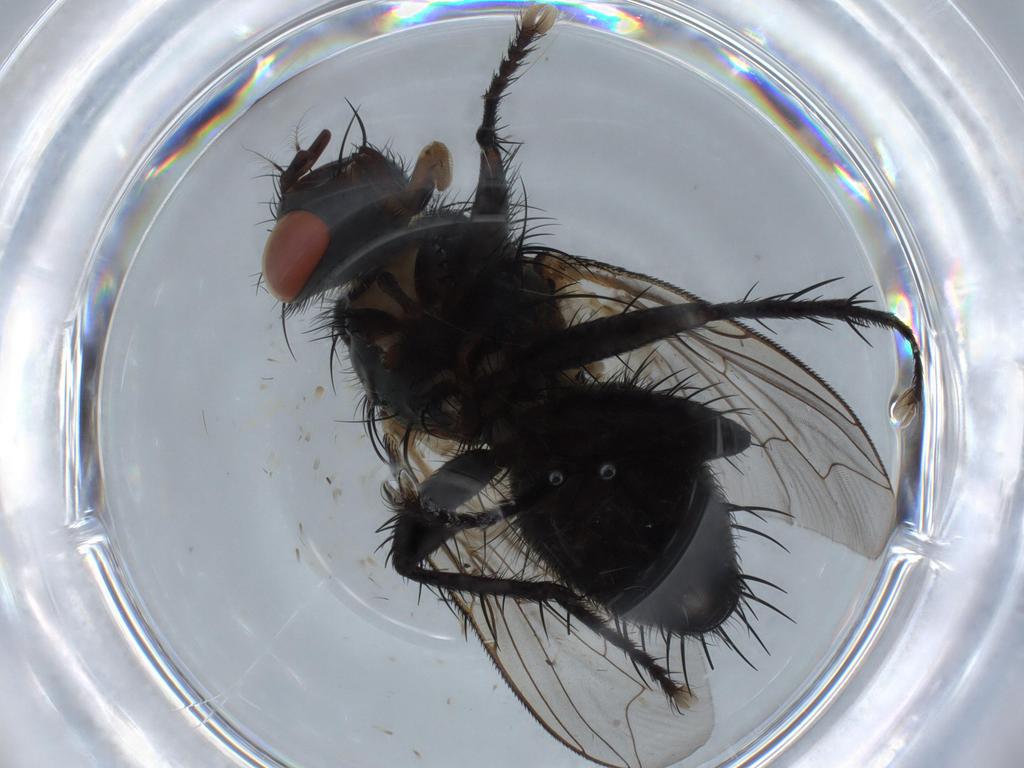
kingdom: Animalia
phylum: Arthropoda
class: Insecta
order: Diptera
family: Sarcophagidae
